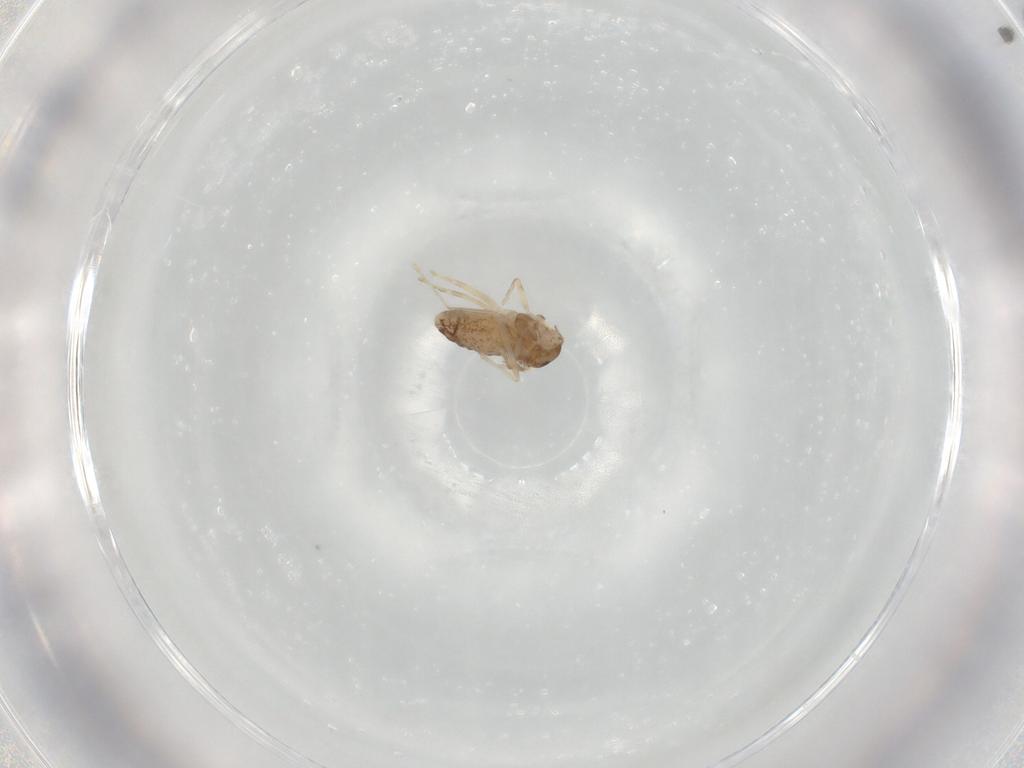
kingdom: Animalia
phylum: Arthropoda
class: Insecta
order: Diptera
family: Chironomidae
